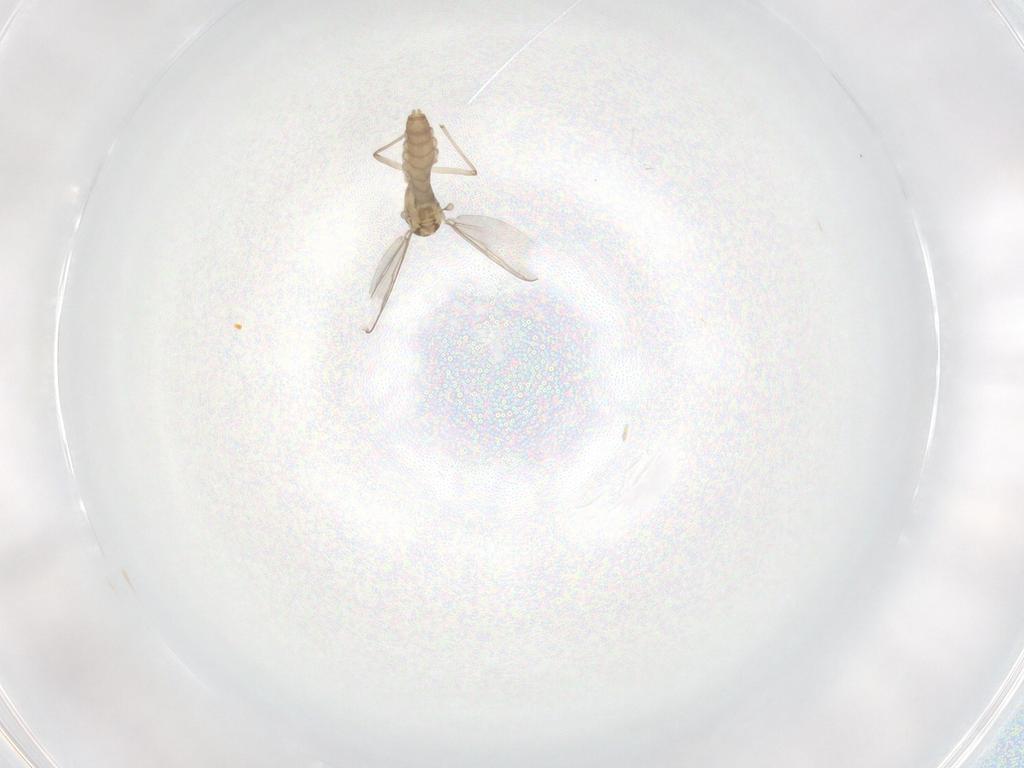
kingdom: Animalia
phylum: Arthropoda
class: Insecta
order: Diptera
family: Chironomidae
